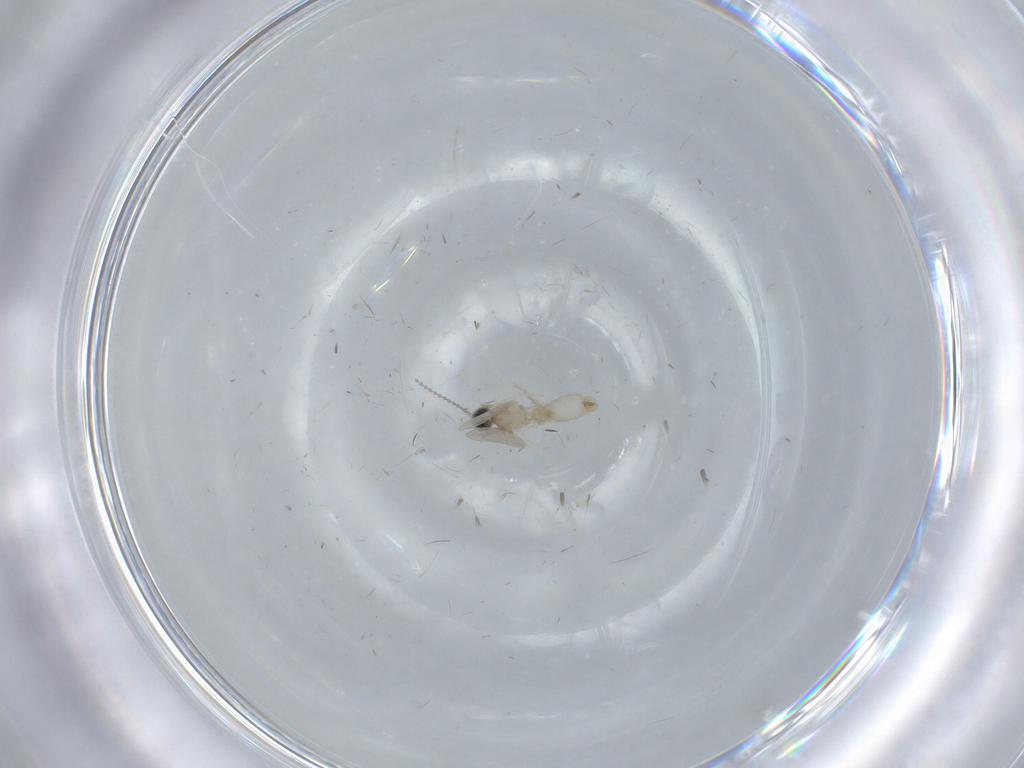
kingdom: Animalia
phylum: Arthropoda
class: Insecta
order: Diptera
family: Cecidomyiidae
